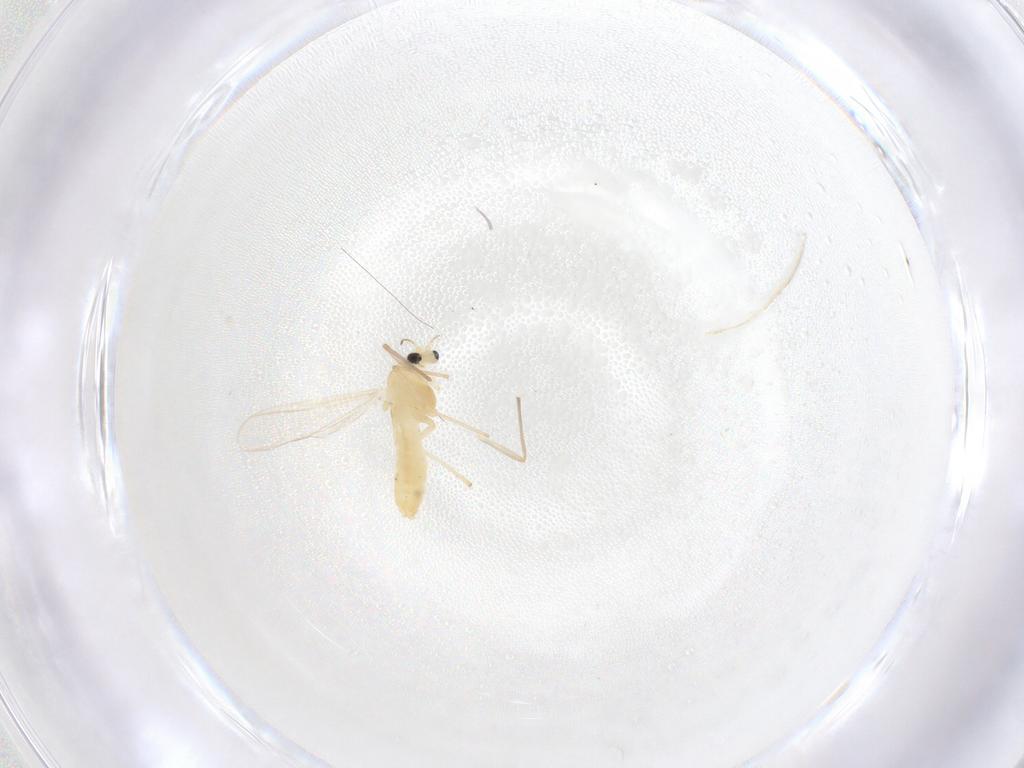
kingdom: Animalia
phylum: Arthropoda
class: Insecta
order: Diptera
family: Chironomidae
